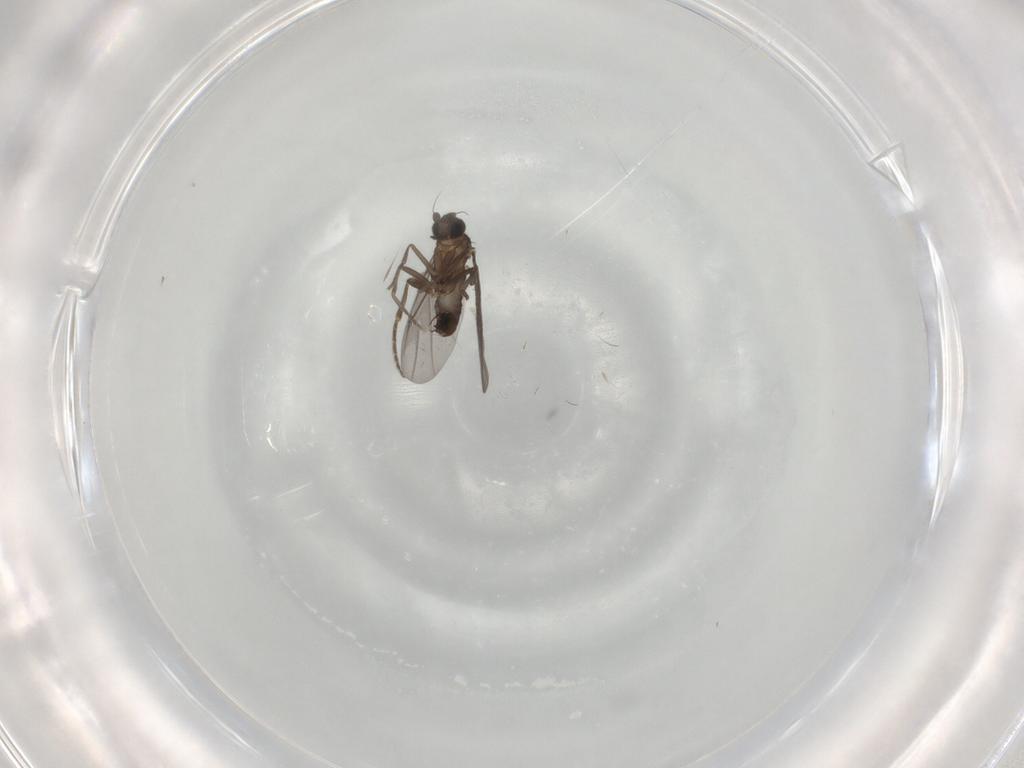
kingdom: Animalia
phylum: Arthropoda
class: Insecta
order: Diptera
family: Phoridae
